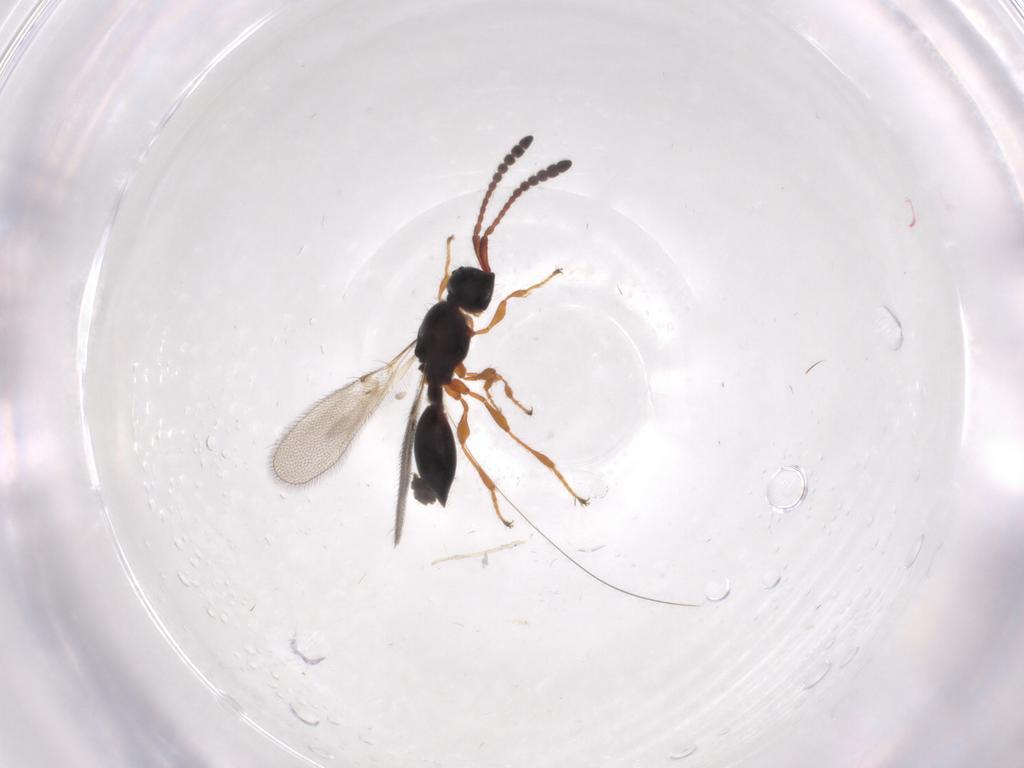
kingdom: Animalia
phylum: Arthropoda
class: Insecta
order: Hymenoptera
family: Diapriidae
